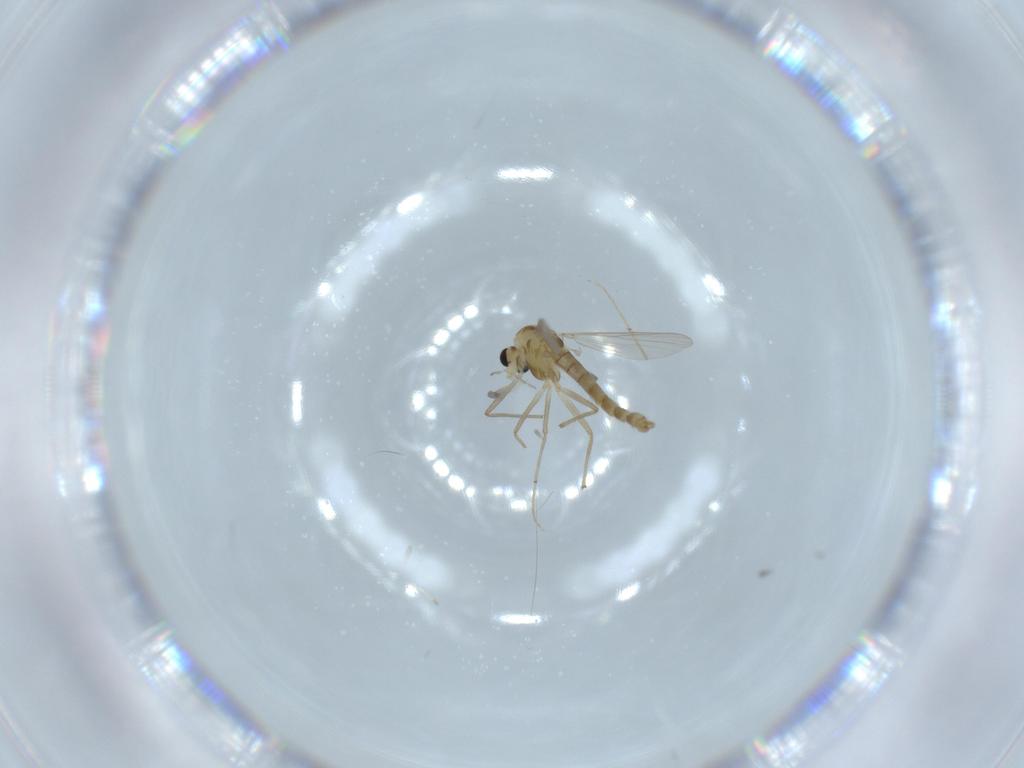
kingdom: Animalia
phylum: Arthropoda
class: Insecta
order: Diptera
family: Chironomidae
